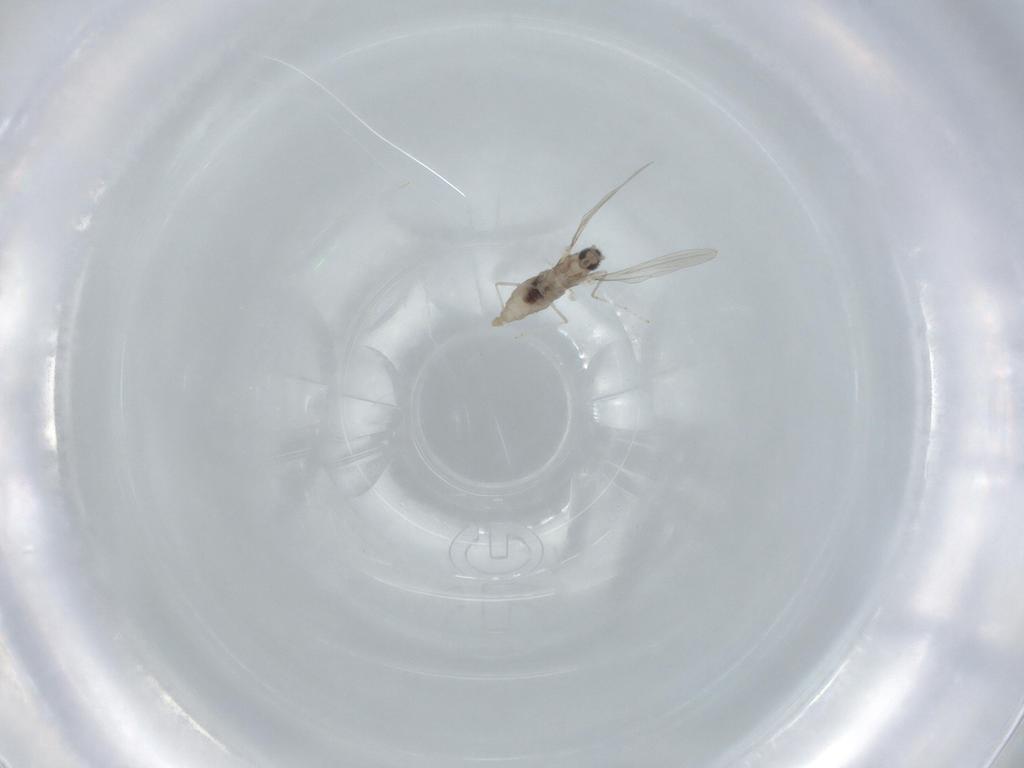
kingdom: Animalia
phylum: Arthropoda
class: Insecta
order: Diptera
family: Cecidomyiidae
